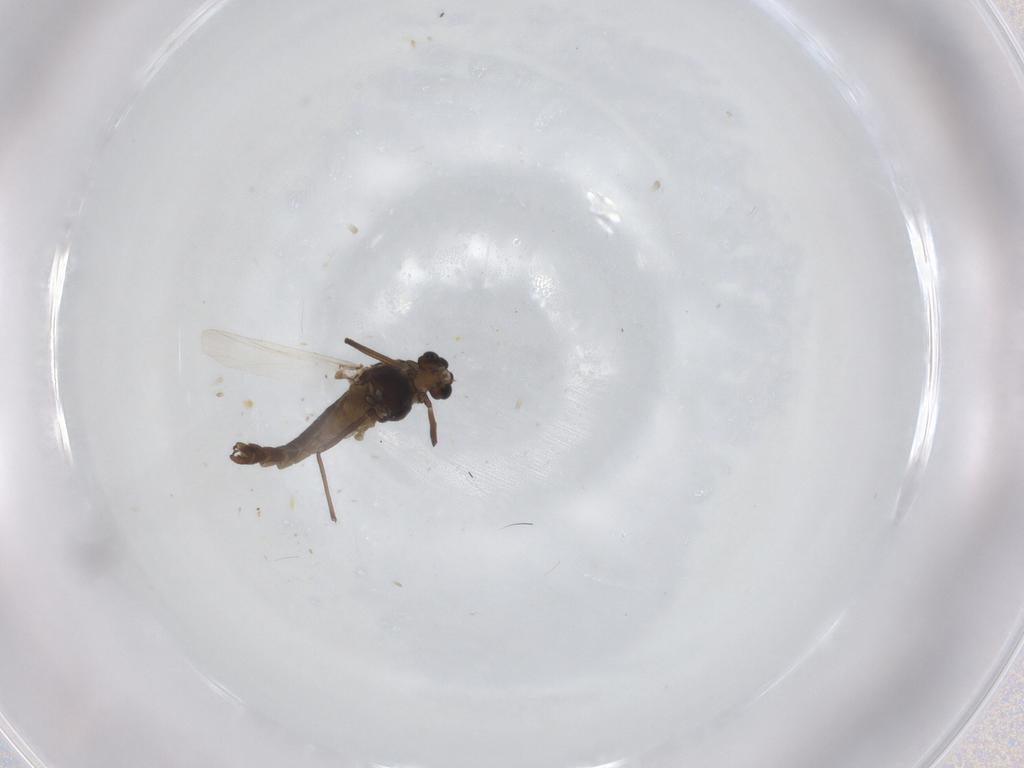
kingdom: Animalia
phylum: Arthropoda
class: Insecta
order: Diptera
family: Chironomidae
